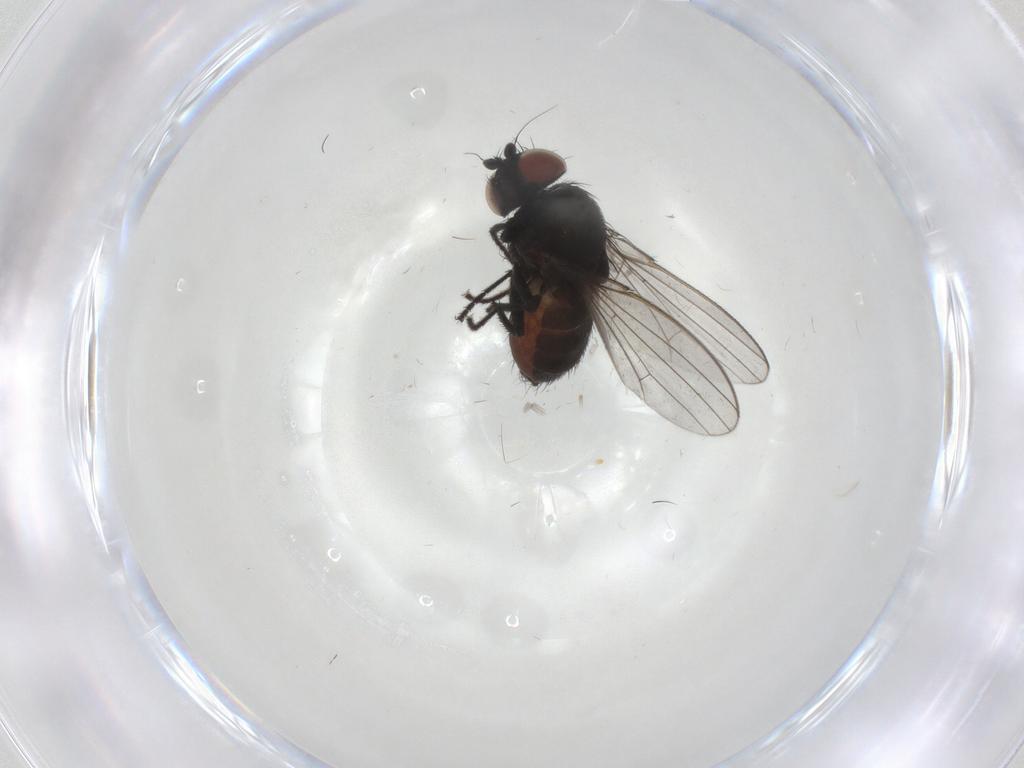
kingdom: Animalia
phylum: Arthropoda
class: Insecta
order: Diptera
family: Milichiidae
